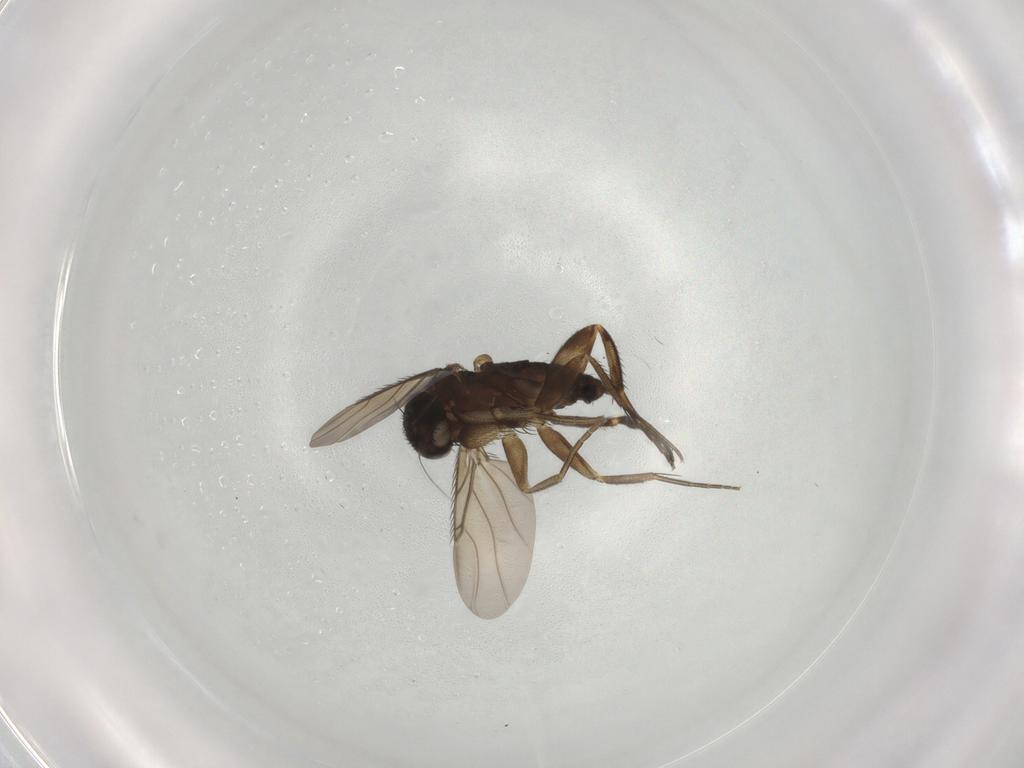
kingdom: Animalia
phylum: Arthropoda
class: Insecta
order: Diptera
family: Phoridae
